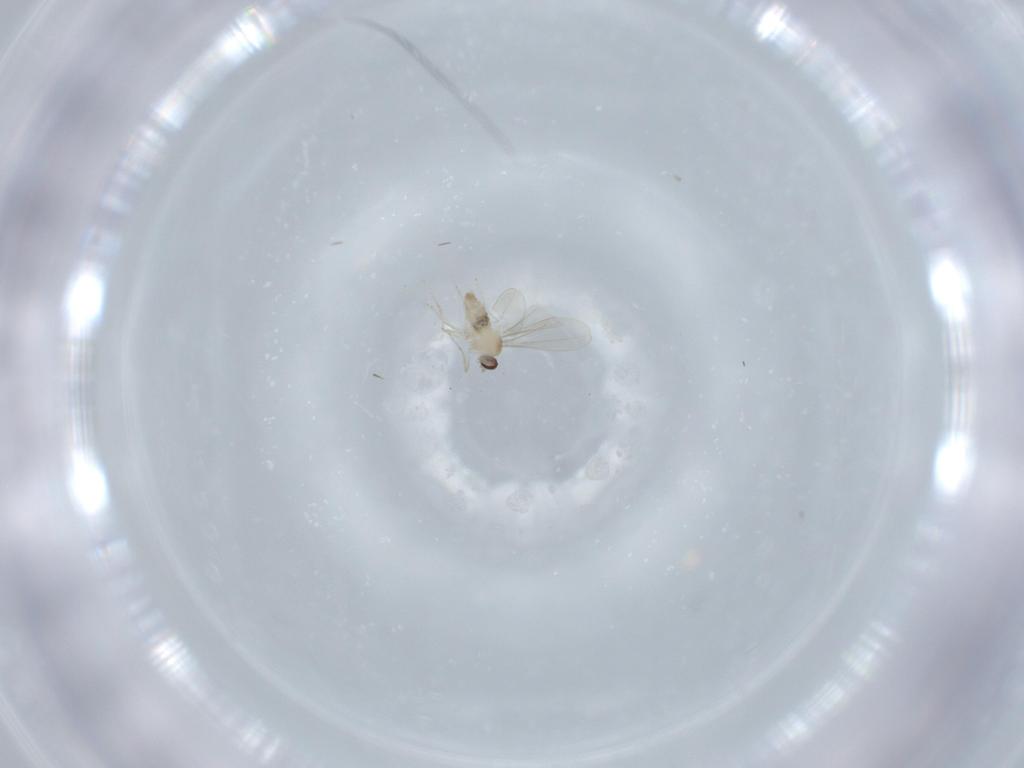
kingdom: Animalia
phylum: Arthropoda
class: Insecta
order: Diptera
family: Cecidomyiidae
